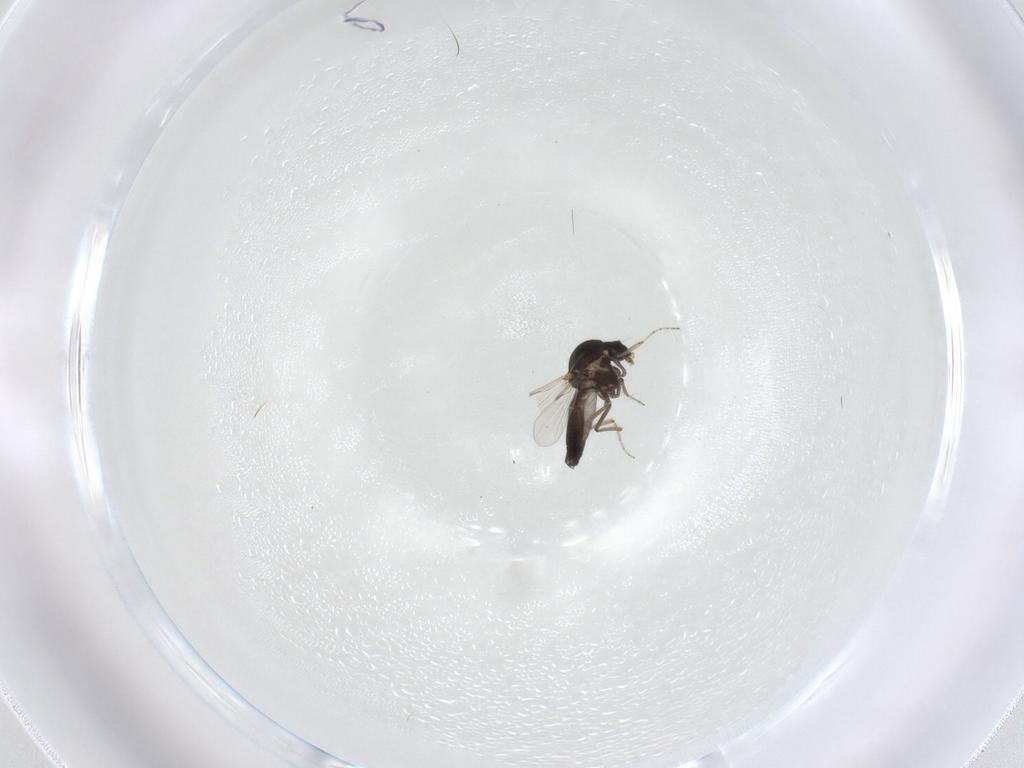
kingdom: Animalia
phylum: Arthropoda
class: Insecta
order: Diptera
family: Ceratopogonidae
